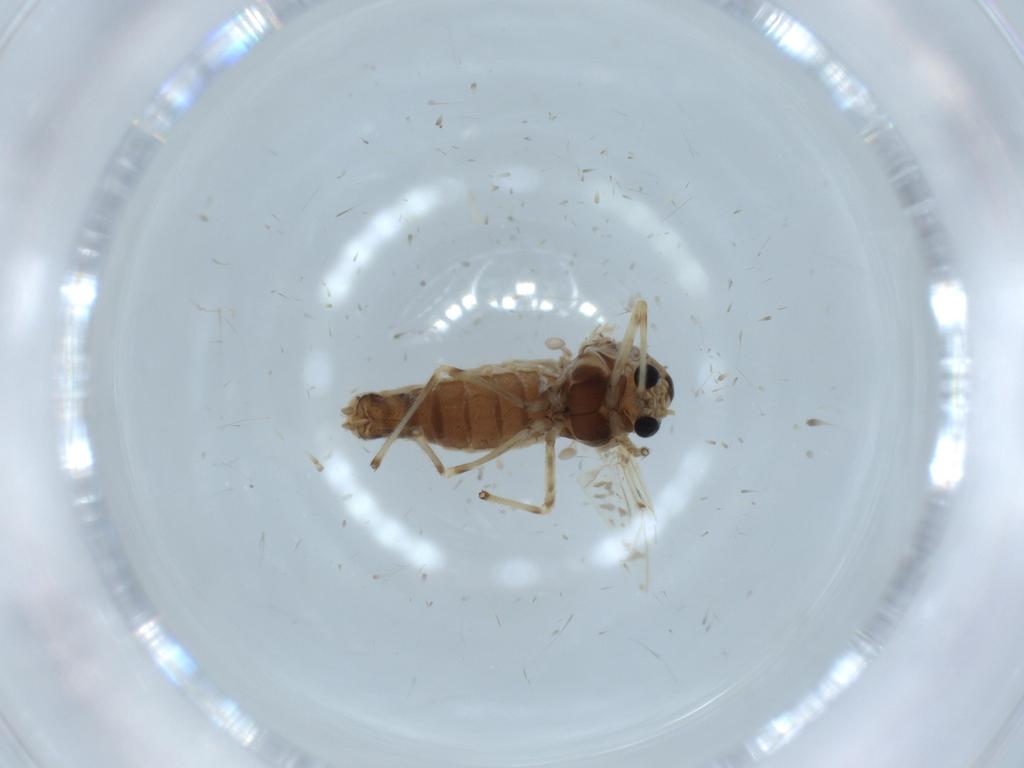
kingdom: Animalia
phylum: Arthropoda
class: Insecta
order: Diptera
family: Chironomidae
